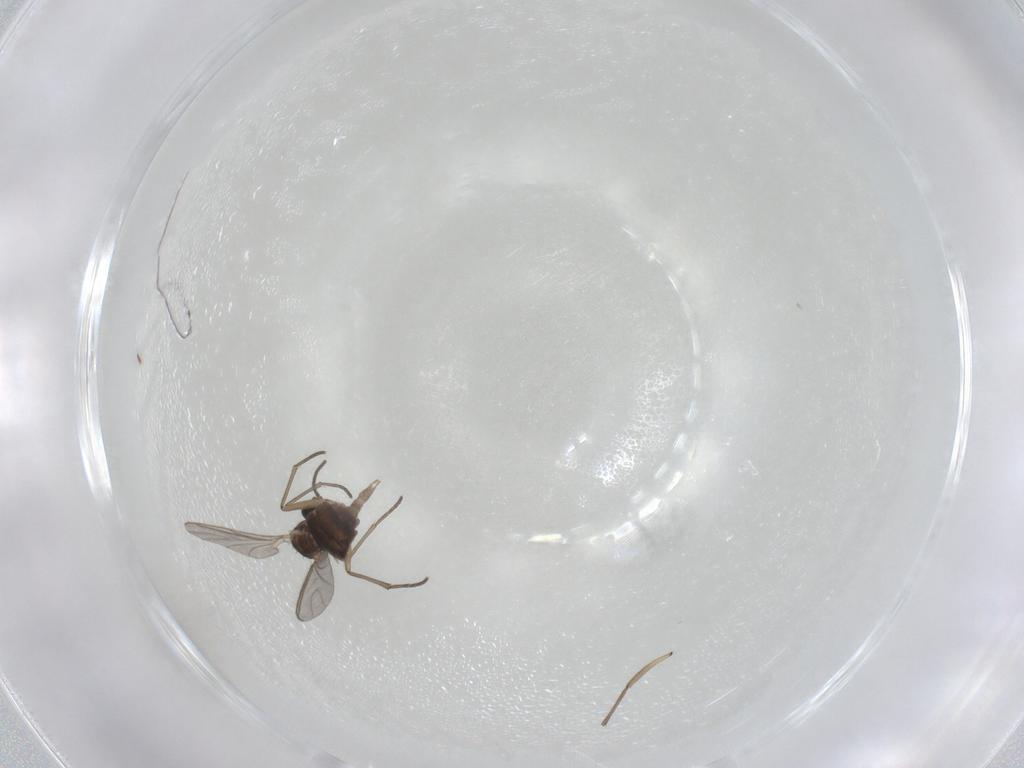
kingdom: Animalia
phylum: Arthropoda
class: Insecta
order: Diptera
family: Sciaridae
